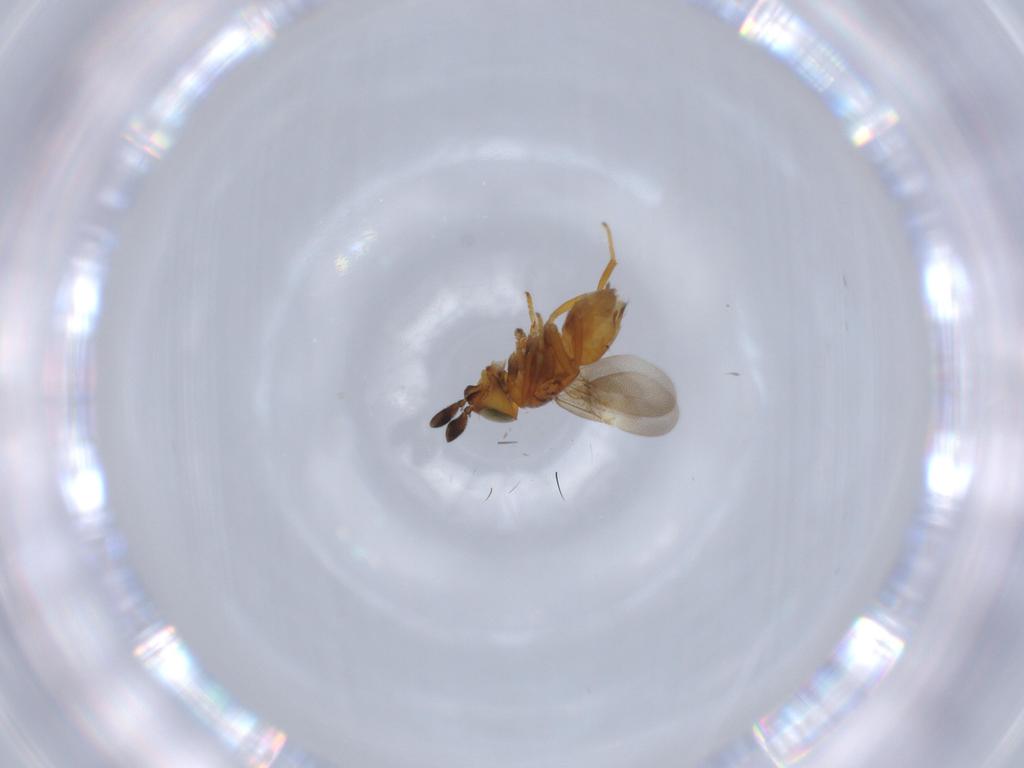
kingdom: Animalia
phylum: Arthropoda
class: Insecta
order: Hymenoptera
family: Encyrtidae
